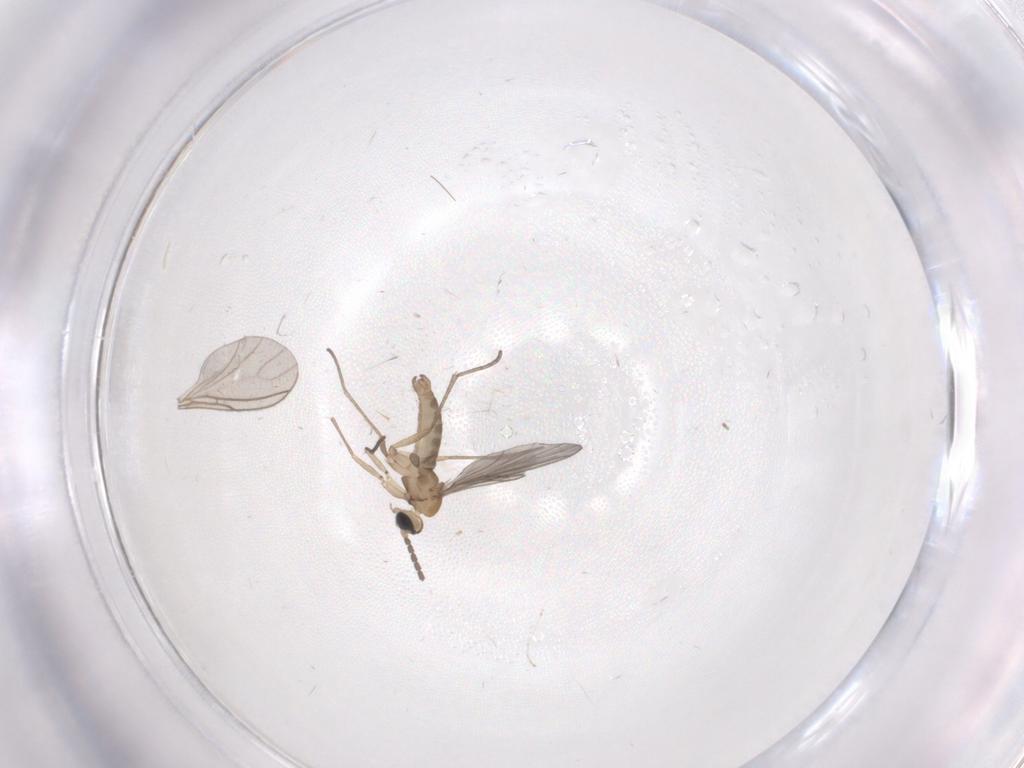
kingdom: Animalia
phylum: Arthropoda
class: Insecta
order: Diptera
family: Sciaridae
